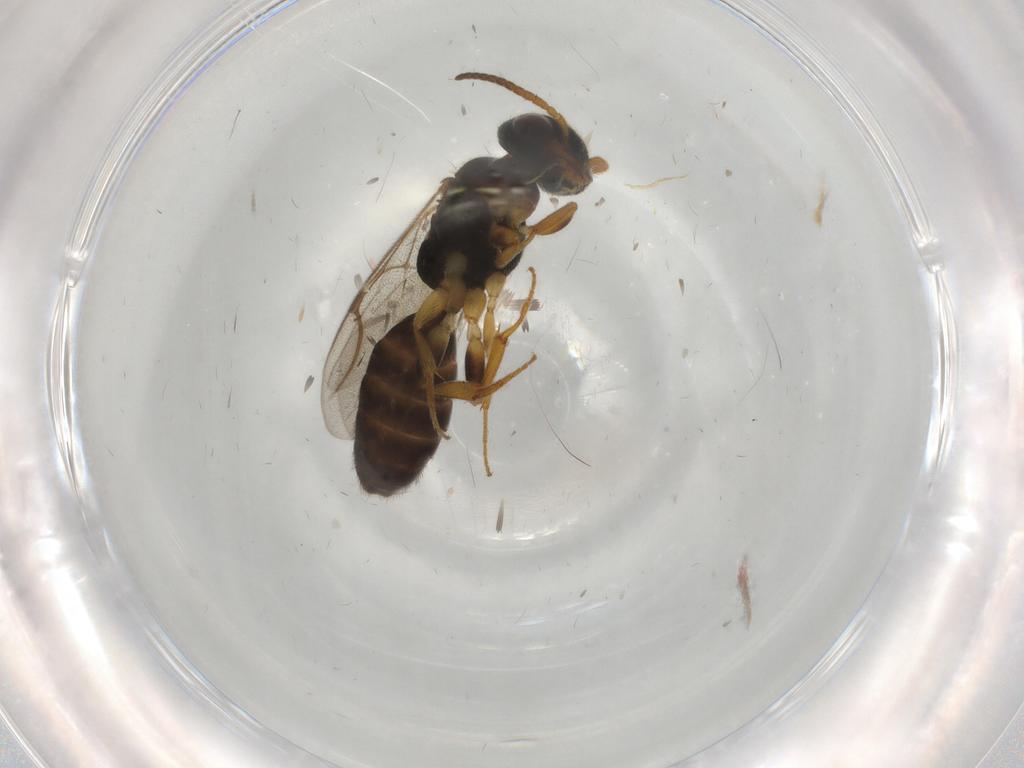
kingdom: Animalia
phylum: Arthropoda
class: Insecta
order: Hymenoptera
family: Bethylidae
